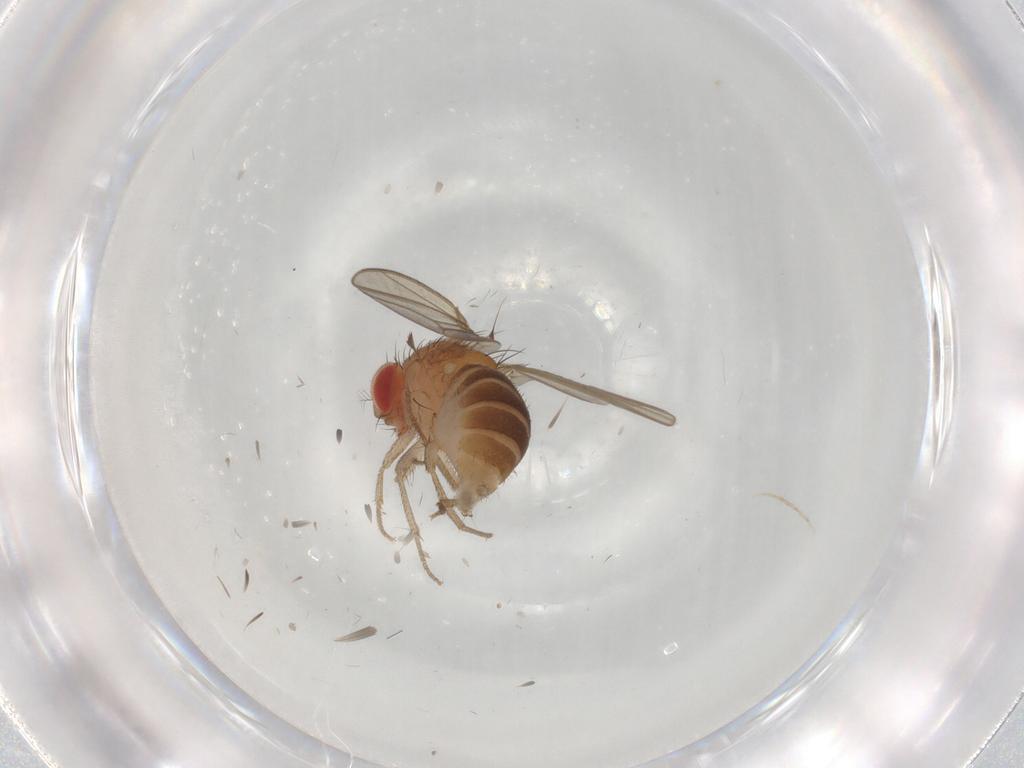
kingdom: Animalia
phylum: Arthropoda
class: Insecta
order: Diptera
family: Drosophilidae
